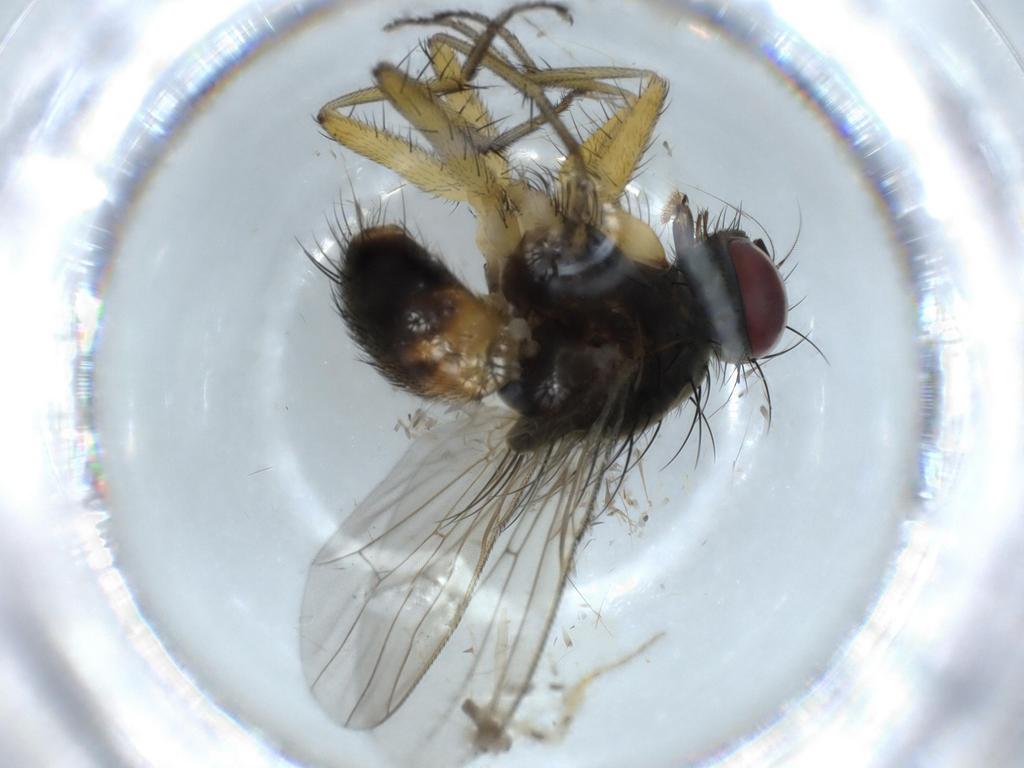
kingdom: Animalia
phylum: Arthropoda
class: Insecta
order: Diptera
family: Muscidae
